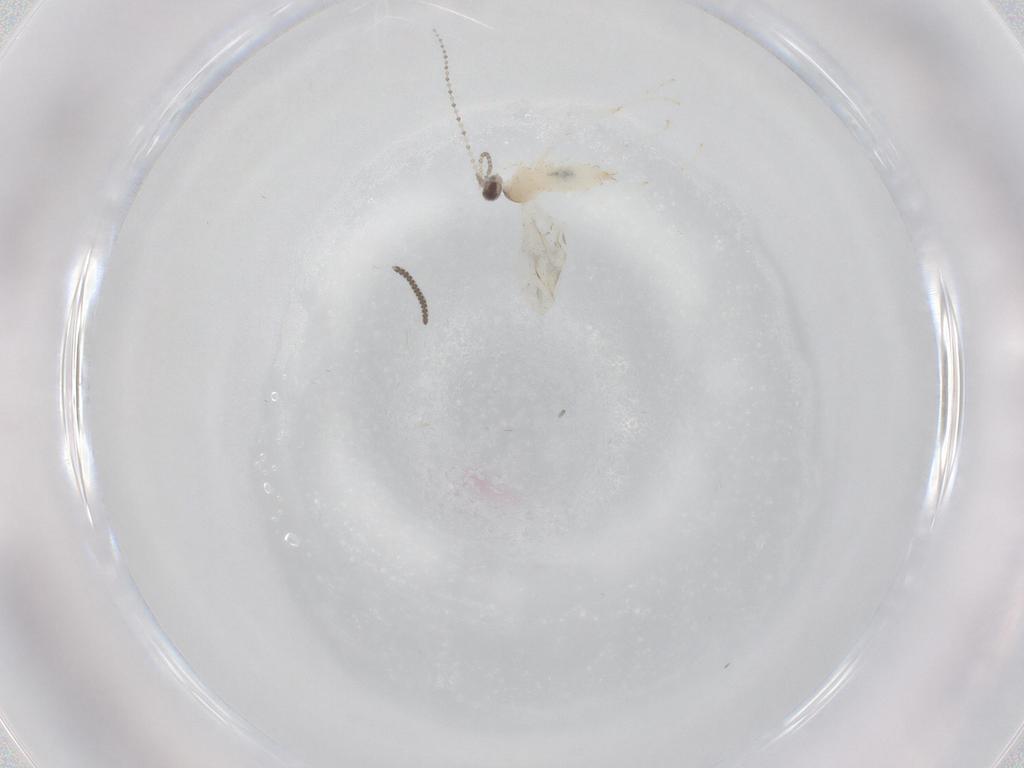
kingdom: Animalia
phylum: Arthropoda
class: Insecta
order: Diptera
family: Cecidomyiidae
